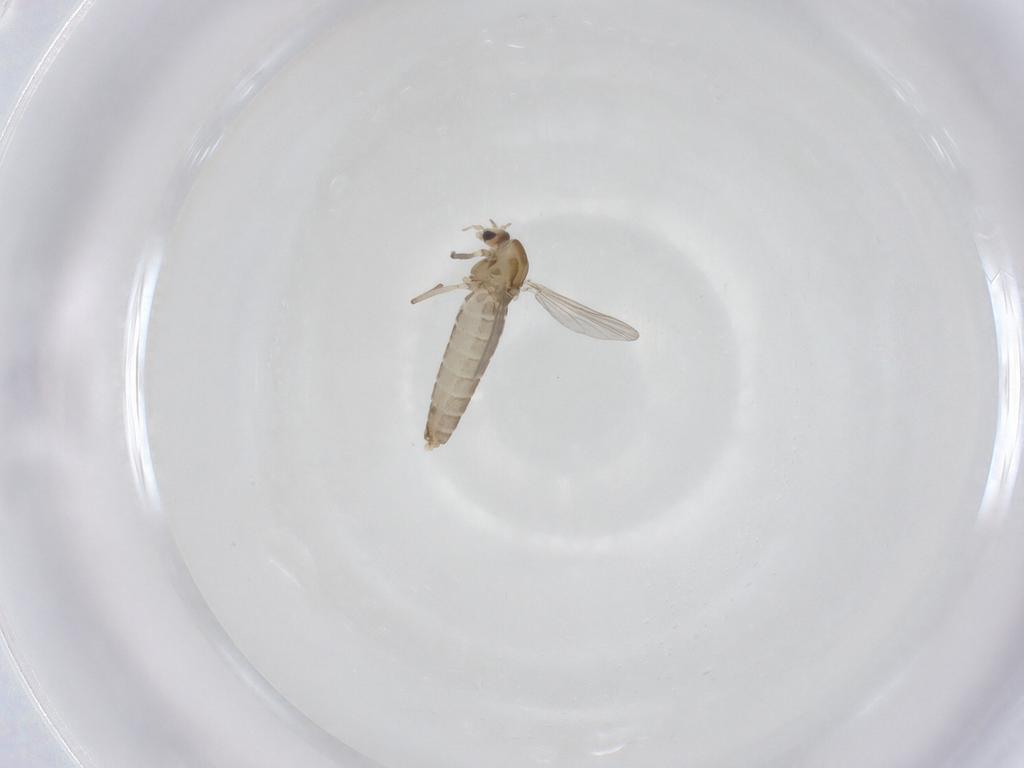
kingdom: Animalia
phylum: Arthropoda
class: Insecta
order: Diptera
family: Chironomidae
